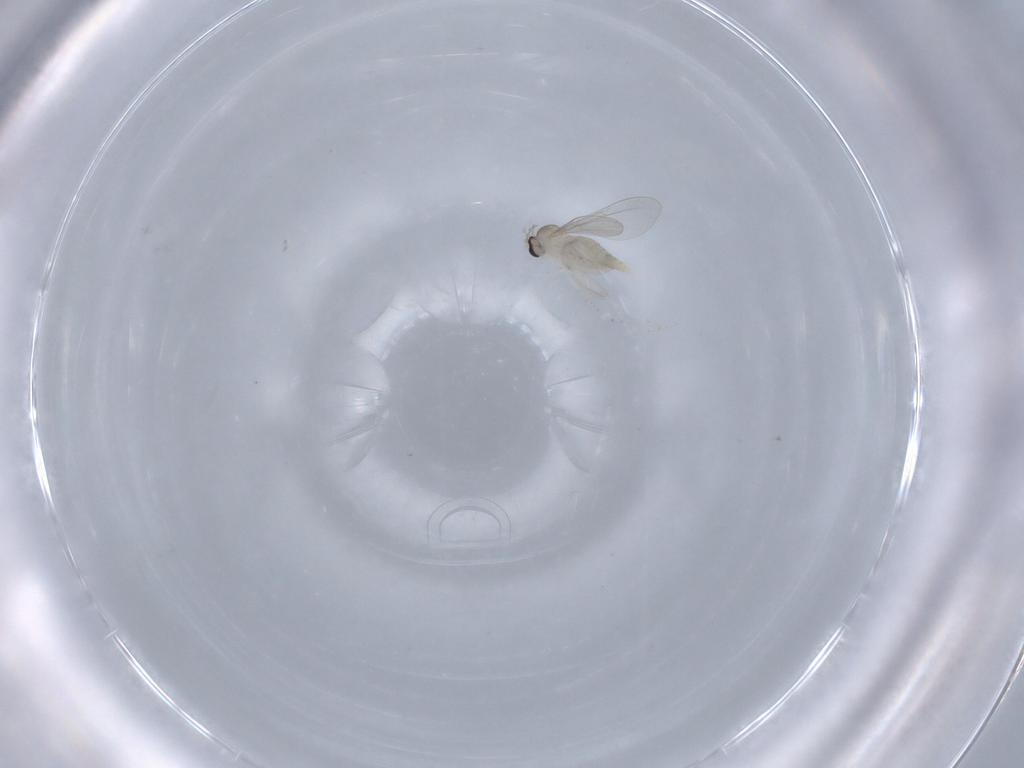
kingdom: Animalia
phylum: Arthropoda
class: Insecta
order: Diptera
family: Cecidomyiidae
